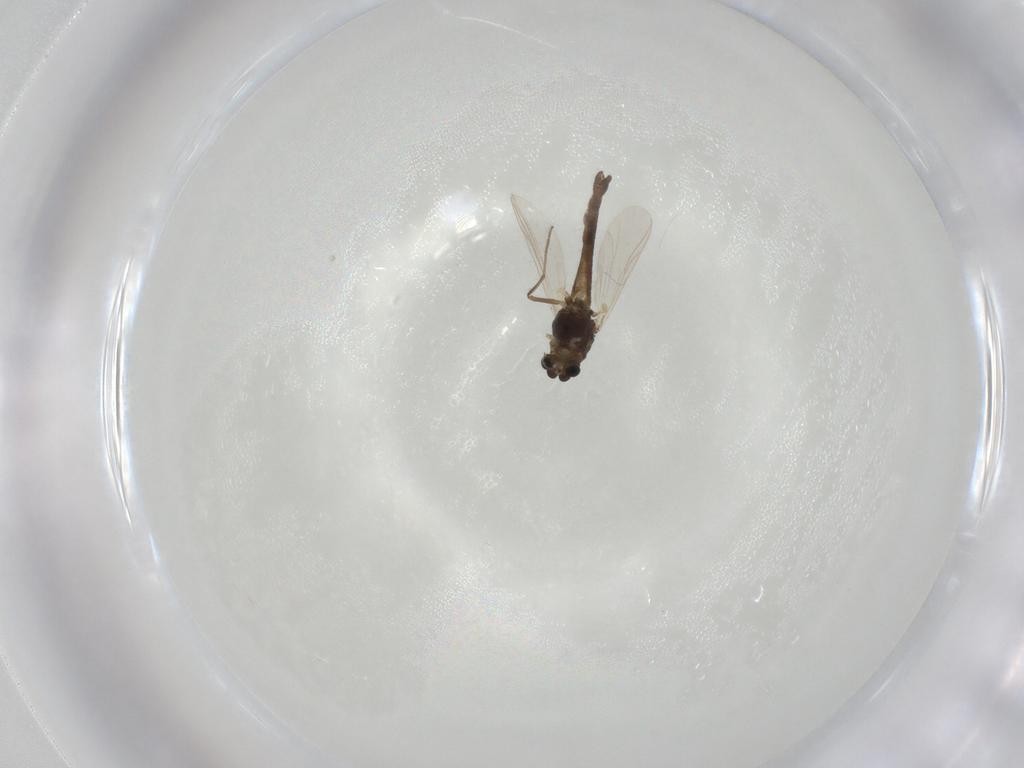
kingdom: Animalia
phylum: Arthropoda
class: Insecta
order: Diptera
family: Chironomidae
